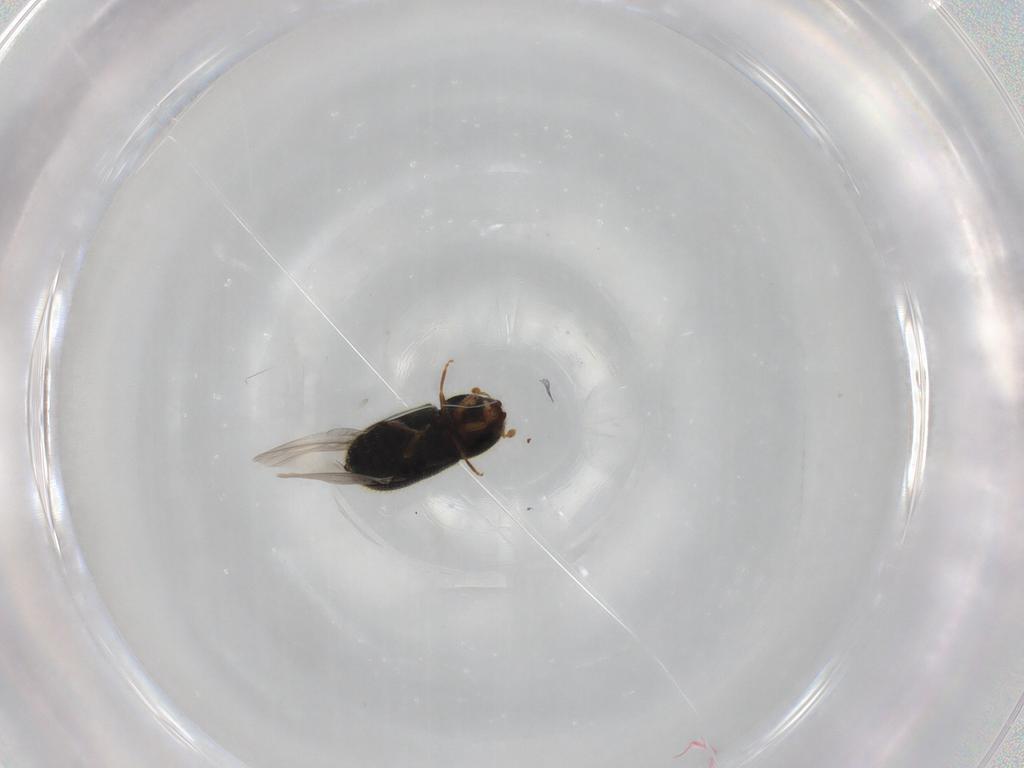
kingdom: Animalia
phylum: Arthropoda
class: Insecta
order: Coleoptera
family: Curculionidae
